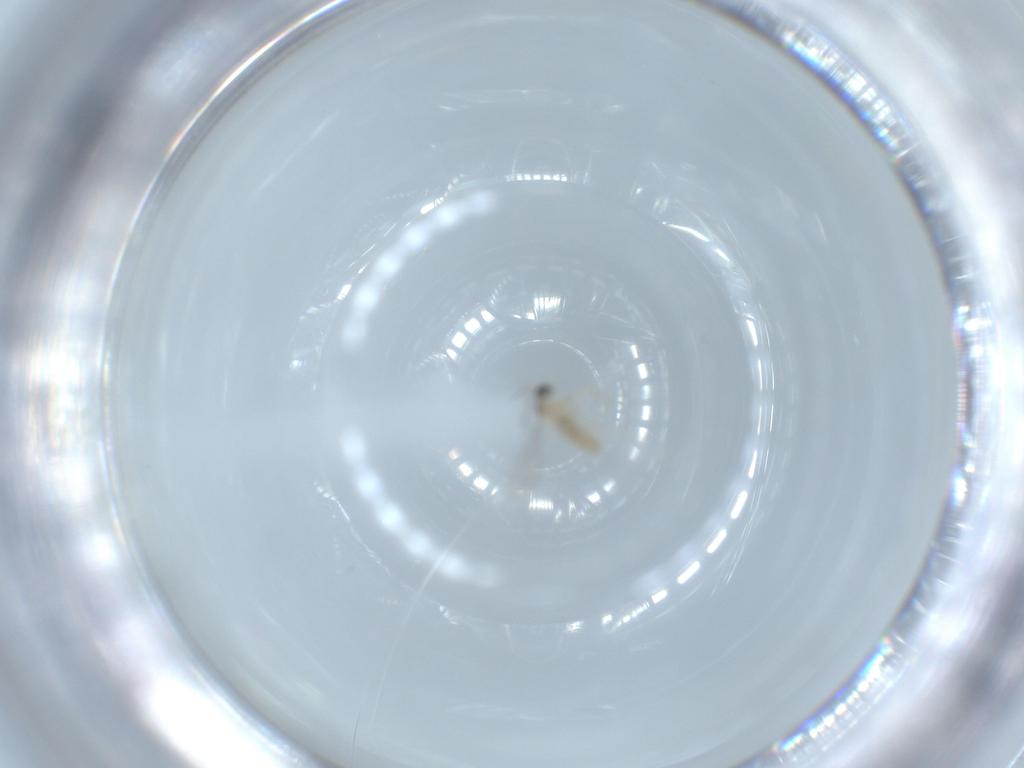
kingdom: Animalia
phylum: Arthropoda
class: Insecta
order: Diptera
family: Cecidomyiidae
